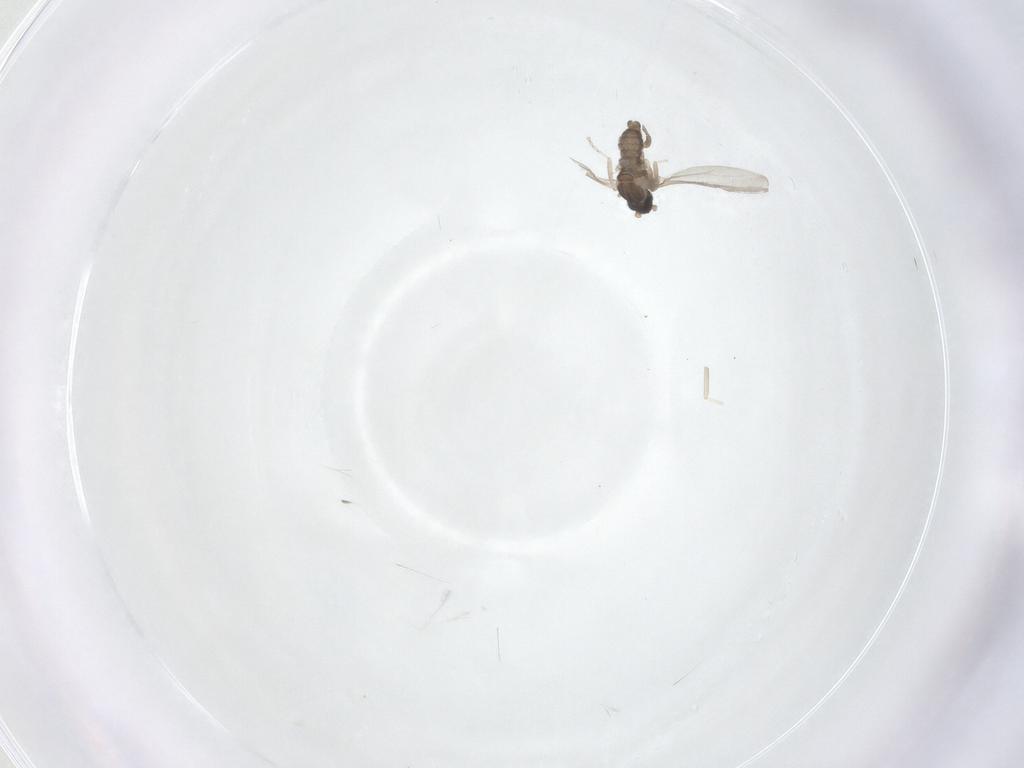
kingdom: Animalia
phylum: Arthropoda
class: Insecta
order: Diptera
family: Cecidomyiidae
